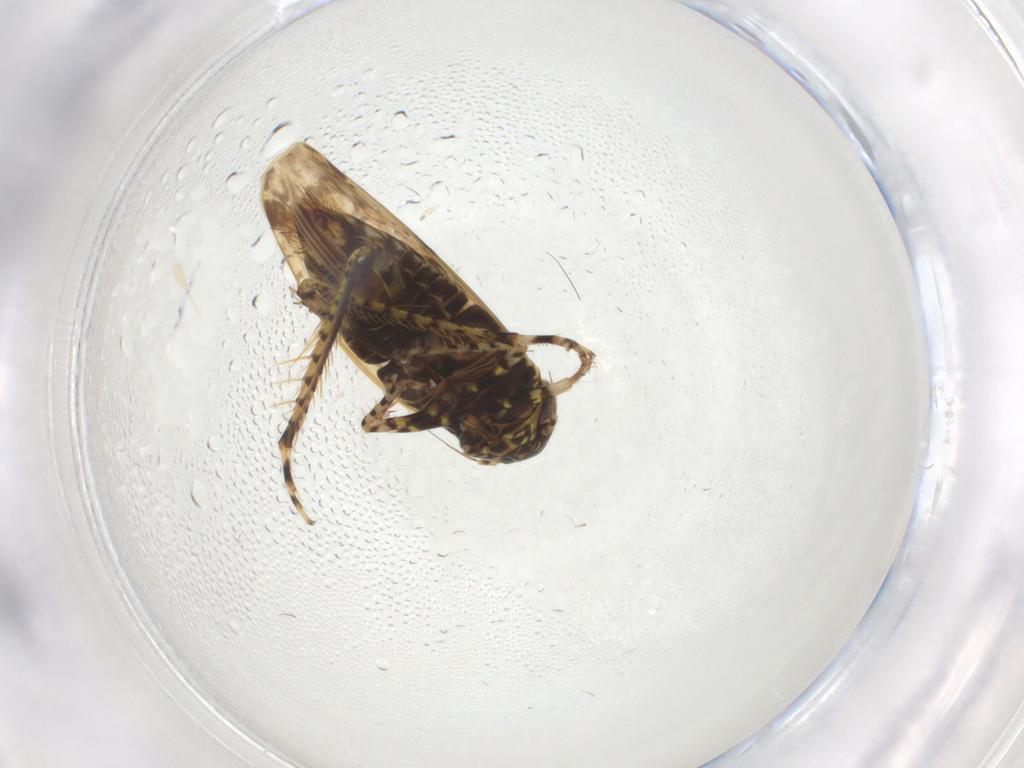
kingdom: Animalia
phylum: Arthropoda
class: Insecta
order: Hemiptera
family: Cicadellidae
